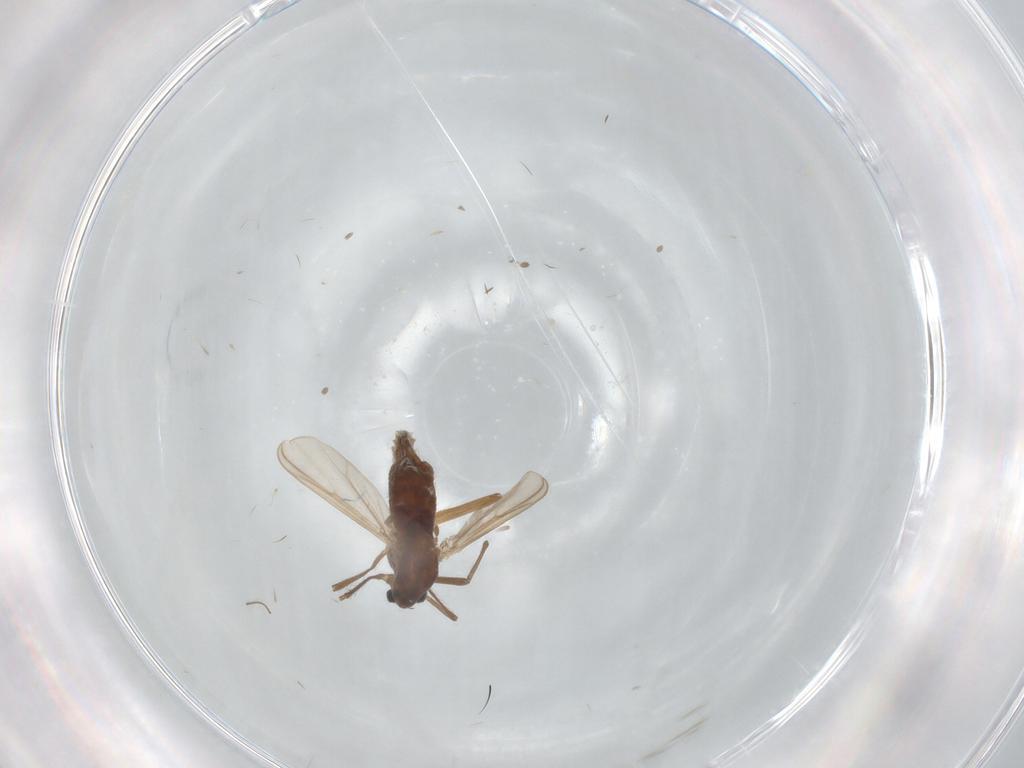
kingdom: Animalia
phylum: Arthropoda
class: Insecta
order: Diptera
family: Chironomidae
